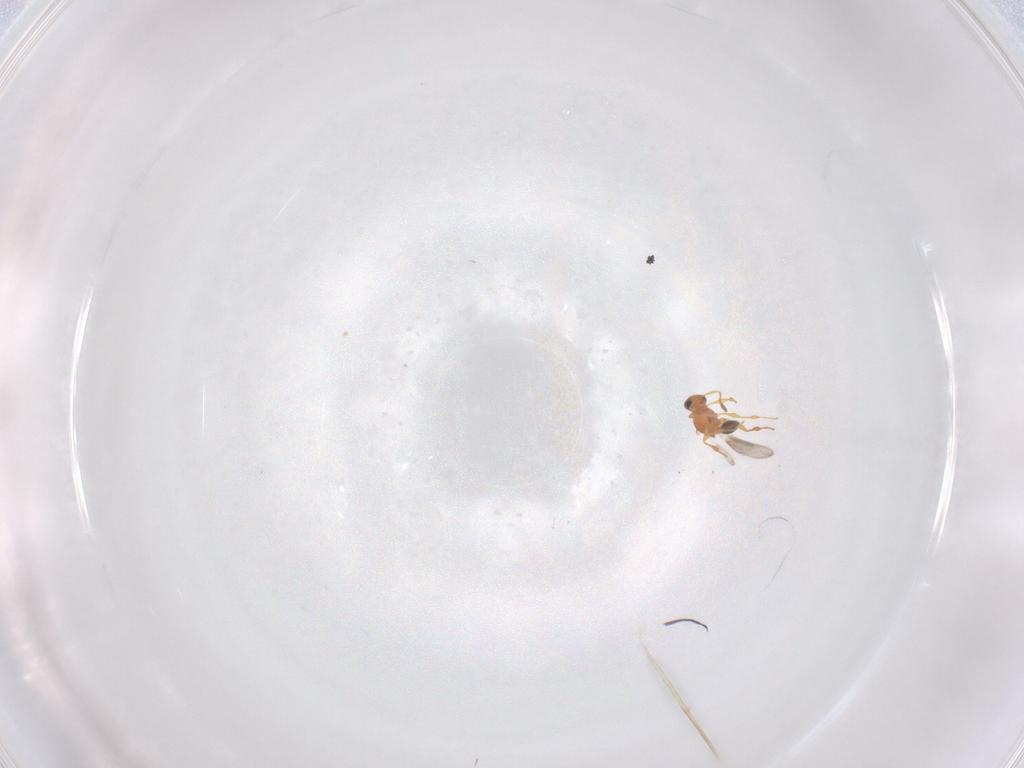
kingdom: Animalia
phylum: Arthropoda
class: Insecta
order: Hymenoptera
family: Platygastridae
